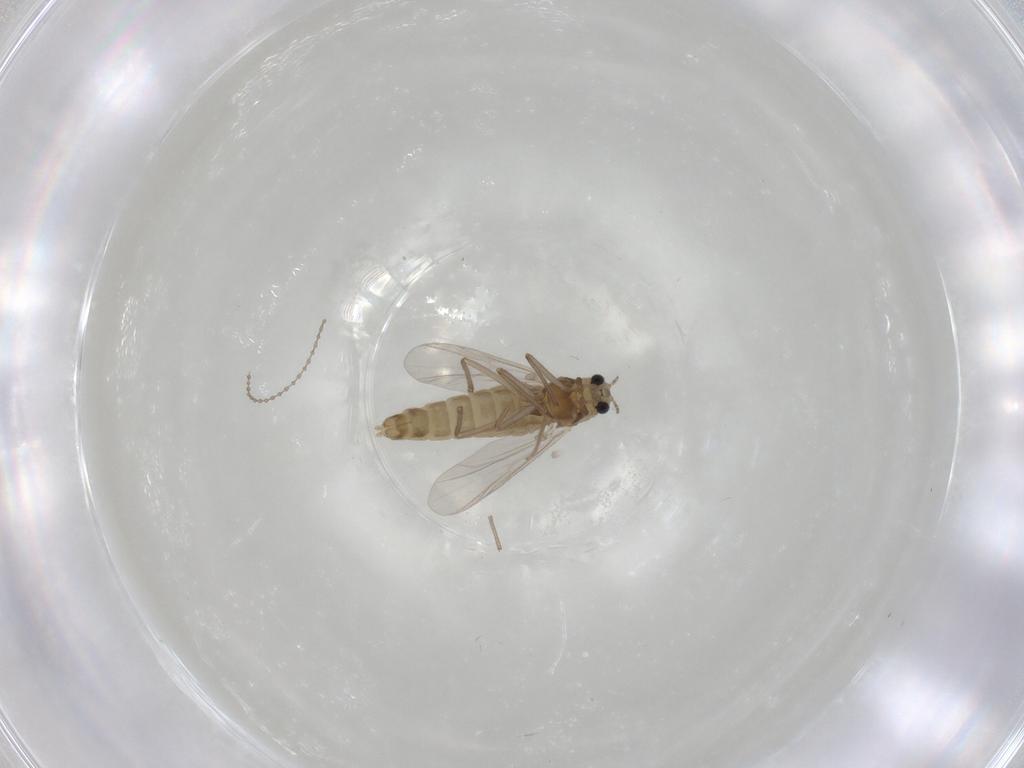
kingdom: Animalia
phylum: Arthropoda
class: Insecta
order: Diptera
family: Chironomidae
